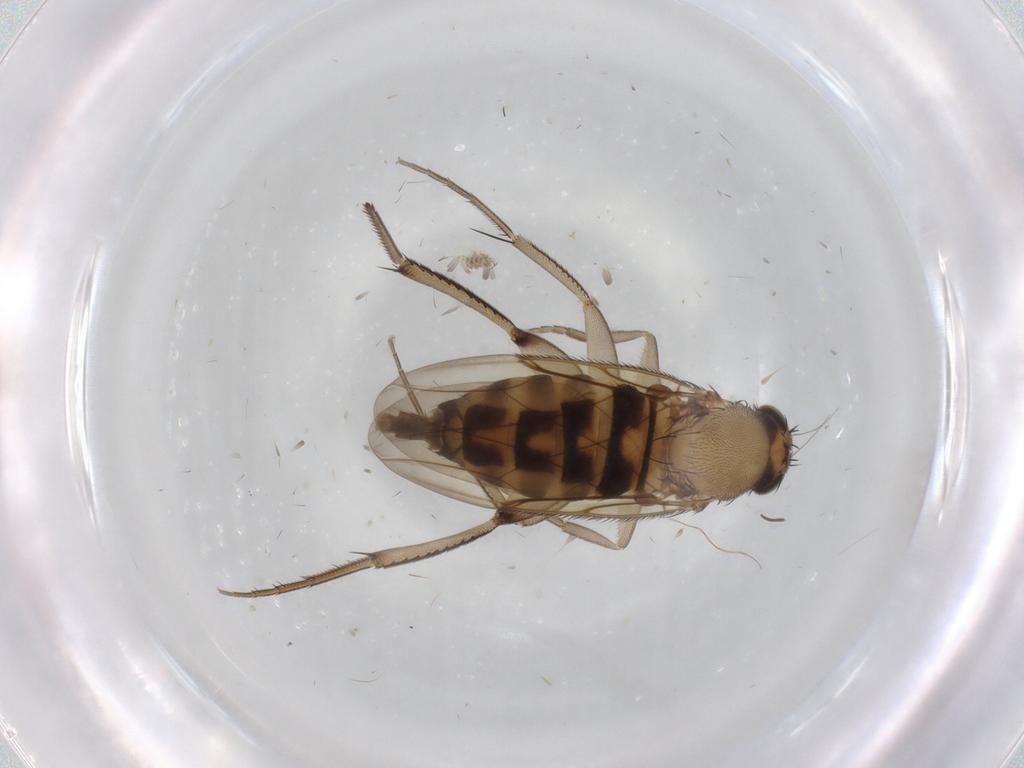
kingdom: Animalia
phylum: Arthropoda
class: Insecta
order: Diptera
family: Phoridae
